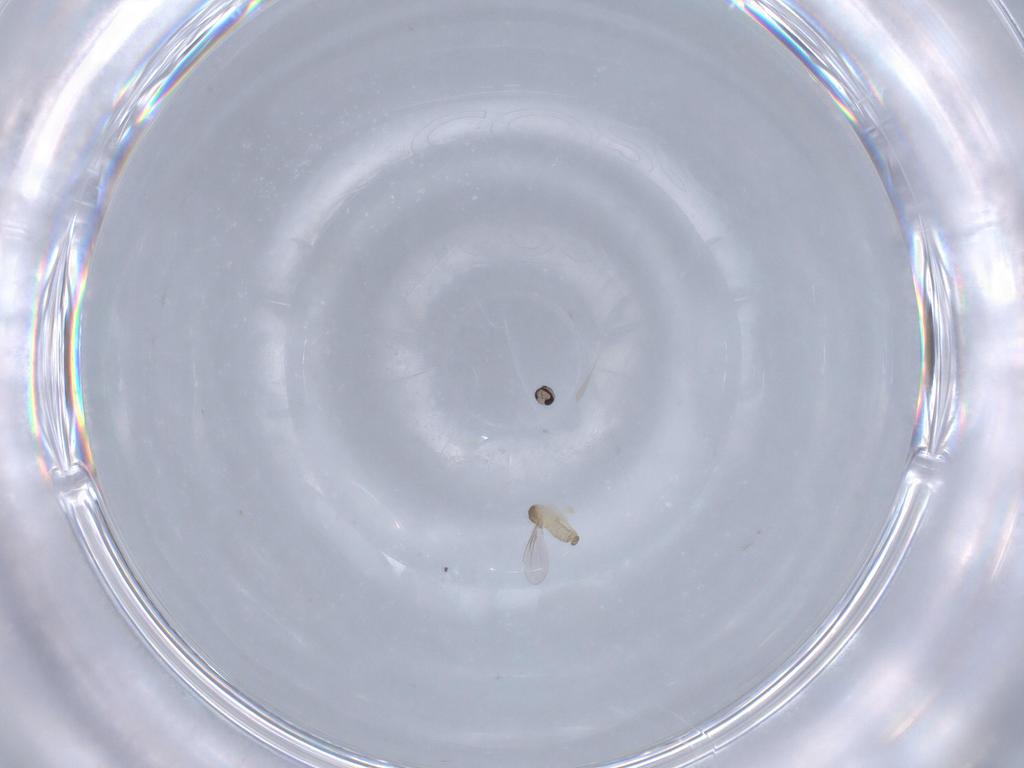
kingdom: Animalia
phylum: Arthropoda
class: Insecta
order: Diptera
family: Cecidomyiidae
